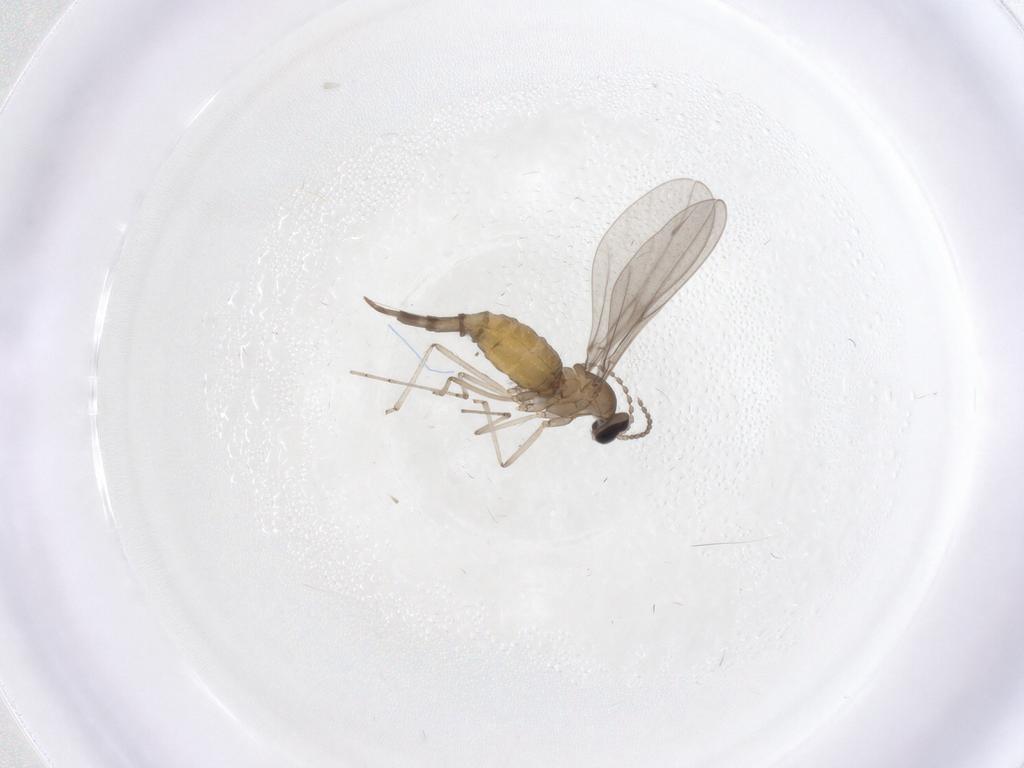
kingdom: Animalia
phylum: Arthropoda
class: Insecta
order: Diptera
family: Cecidomyiidae
